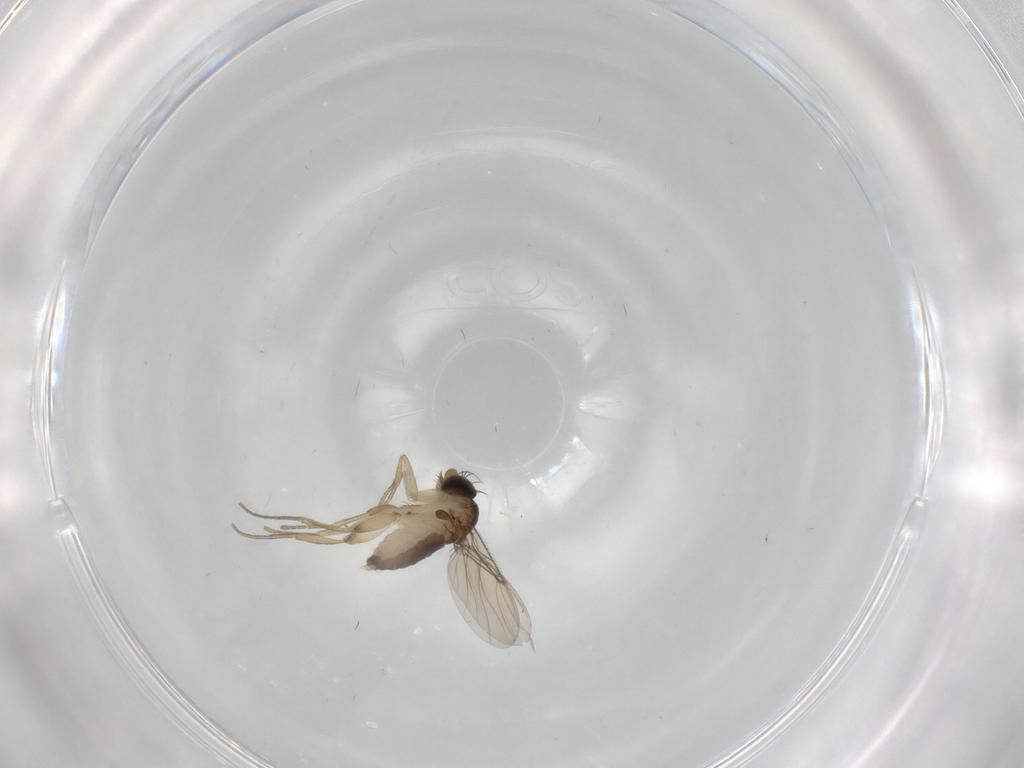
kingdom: Animalia
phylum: Arthropoda
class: Insecta
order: Diptera
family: Phoridae
